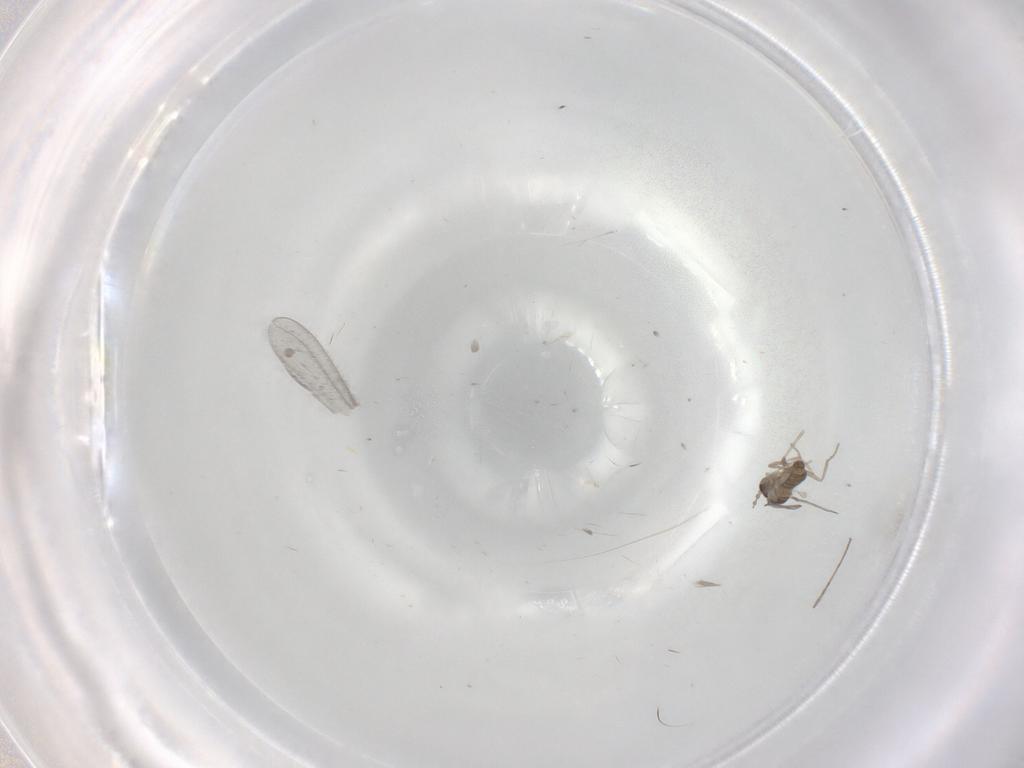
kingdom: Animalia
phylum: Arthropoda
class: Insecta
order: Diptera
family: Cecidomyiidae
